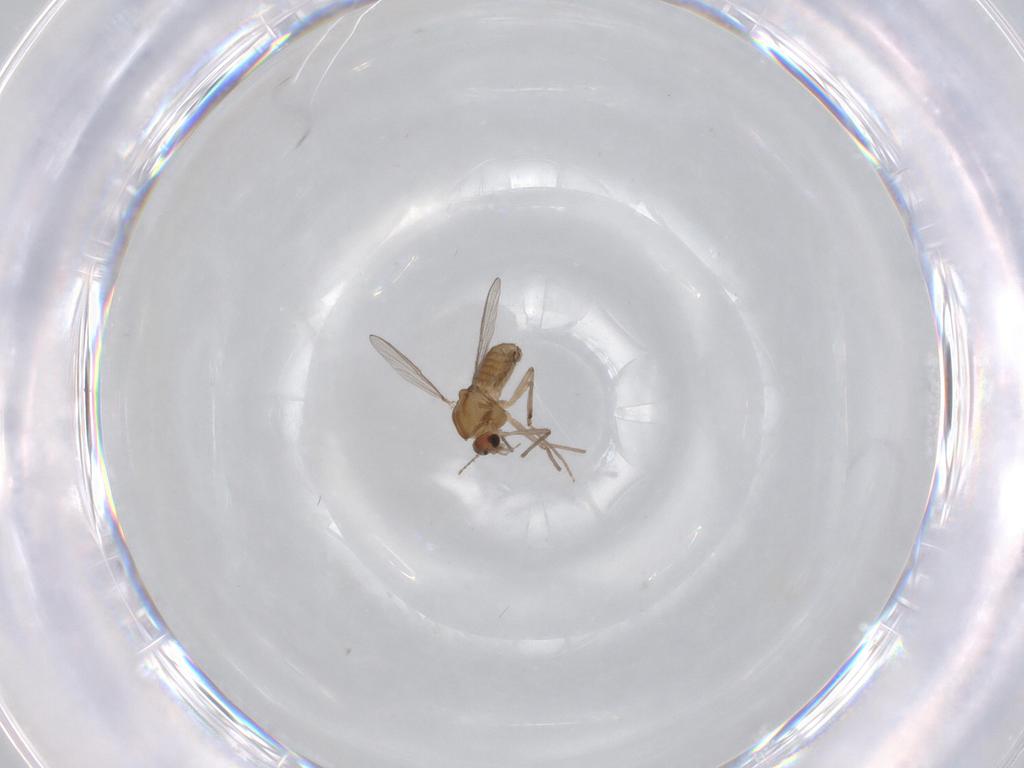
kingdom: Animalia
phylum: Arthropoda
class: Insecta
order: Diptera
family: Chironomidae
